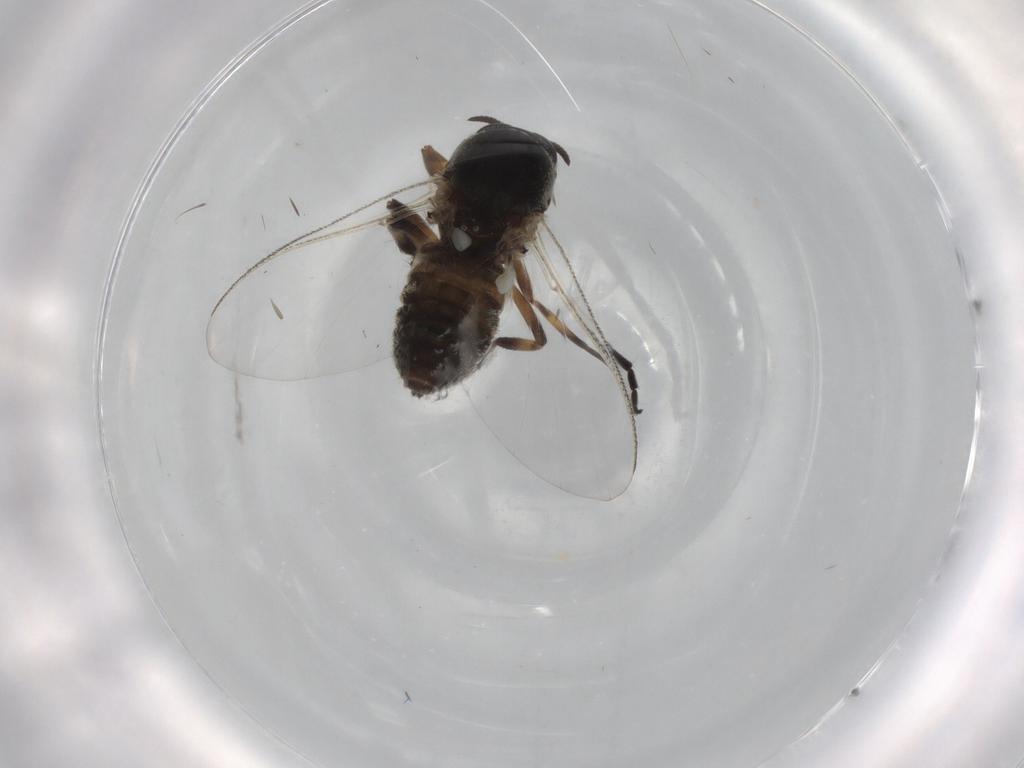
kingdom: Animalia
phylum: Arthropoda
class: Insecta
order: Diptera
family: Cecidomyiidae
